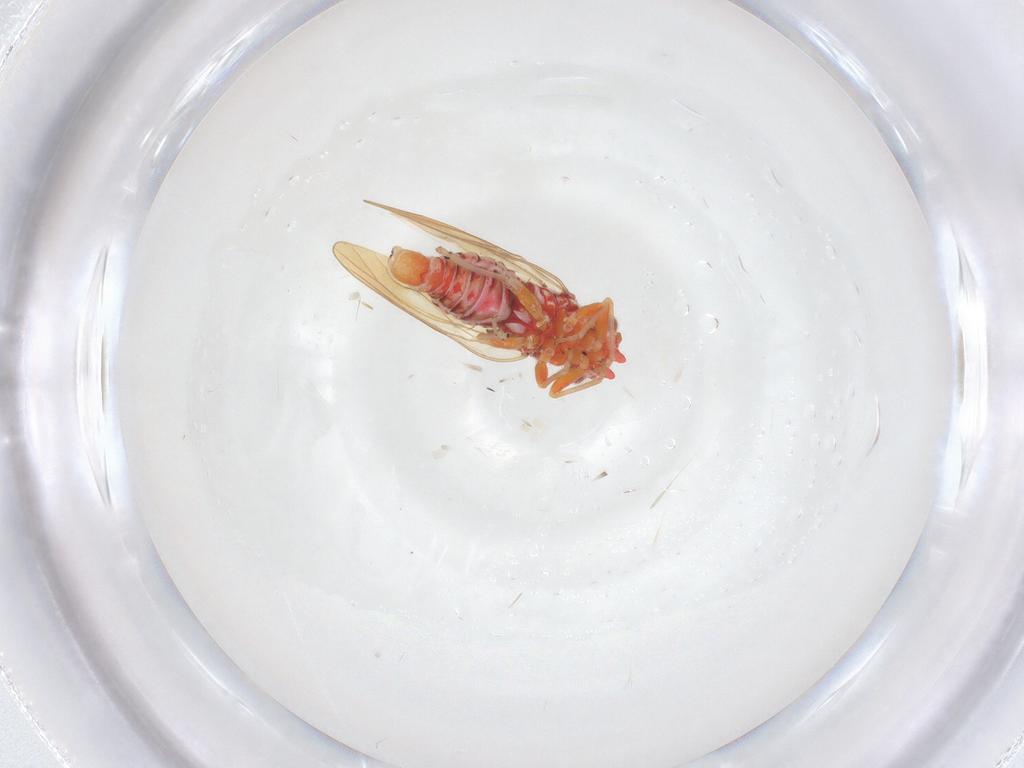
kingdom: Animalia
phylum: Arthropoda
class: Insecta
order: Hemiptera
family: Psyllidae
